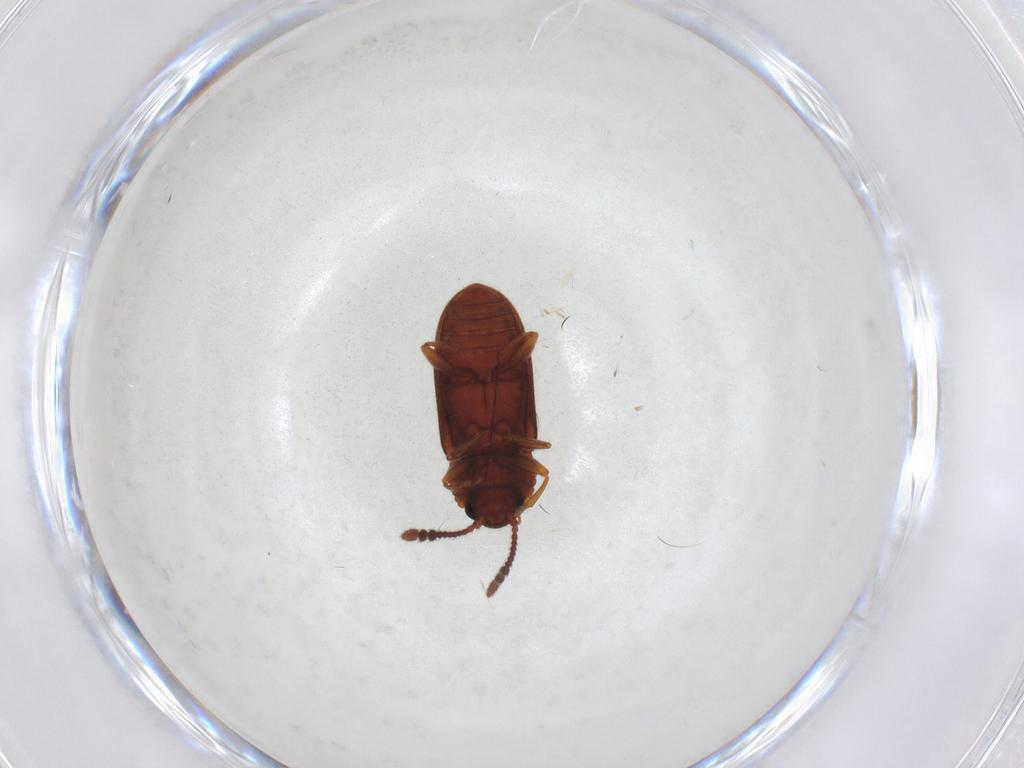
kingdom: Animalia
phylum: Arthropoda
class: Insecta
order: Coleoptera
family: Erotylidae
